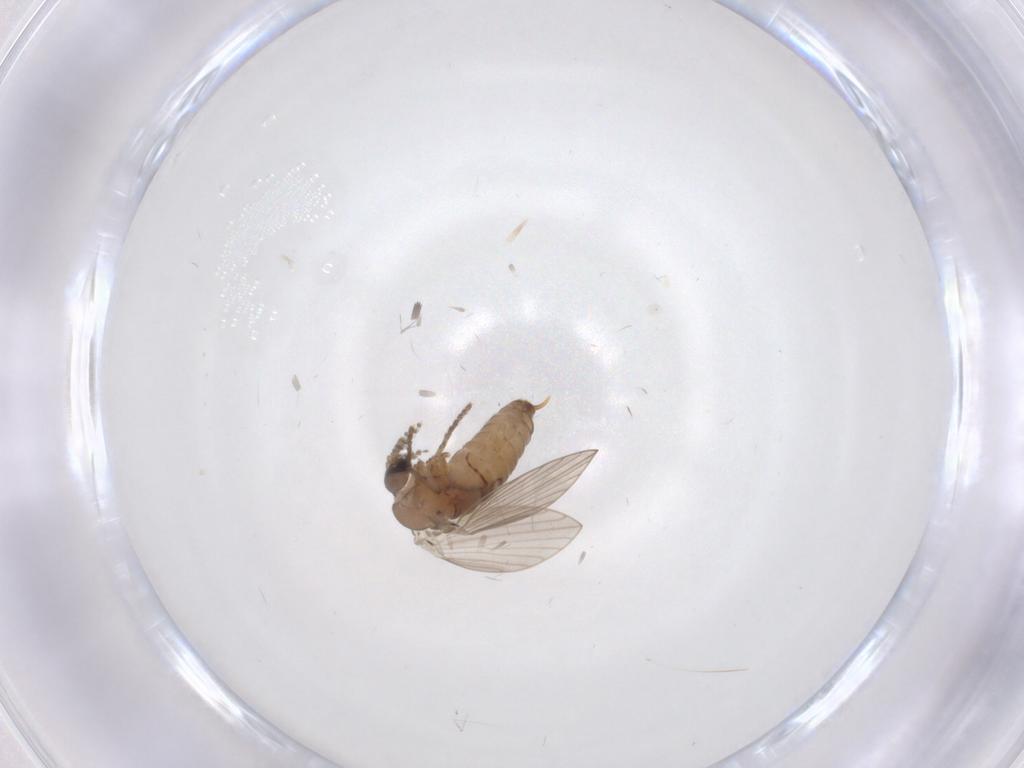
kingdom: Animalia
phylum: Arthropoda
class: Insecta
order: Diptera
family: Psychodidae
